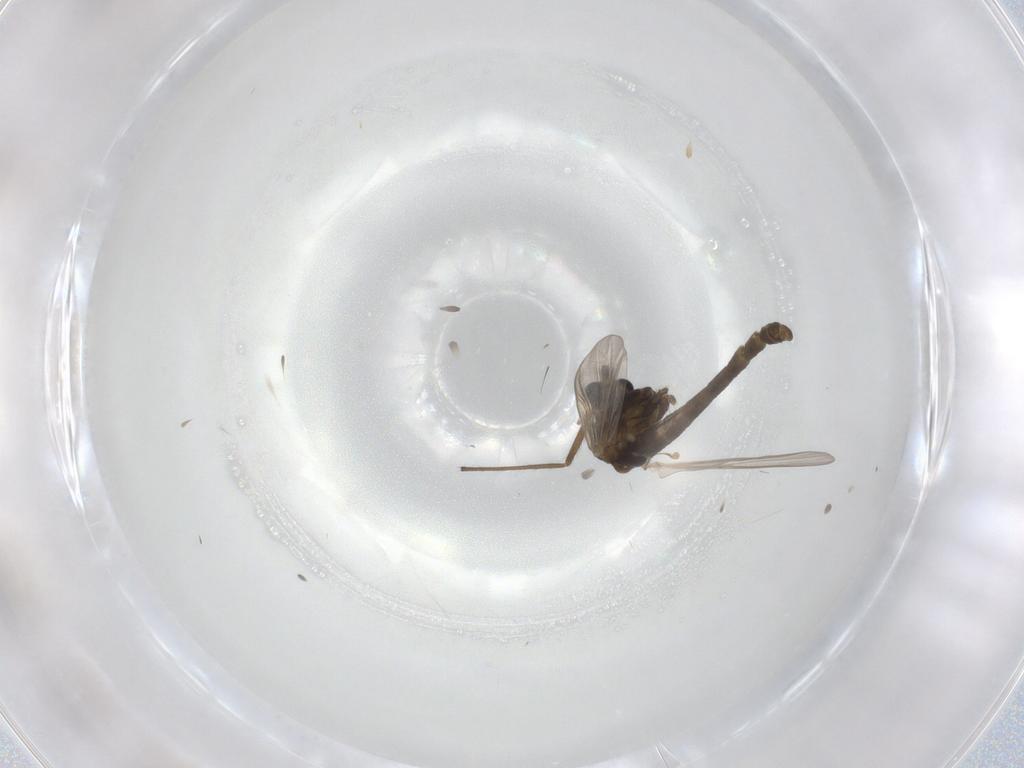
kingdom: Animalia
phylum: Arthropoda
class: Insecta
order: Diptera
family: Chironomidae
